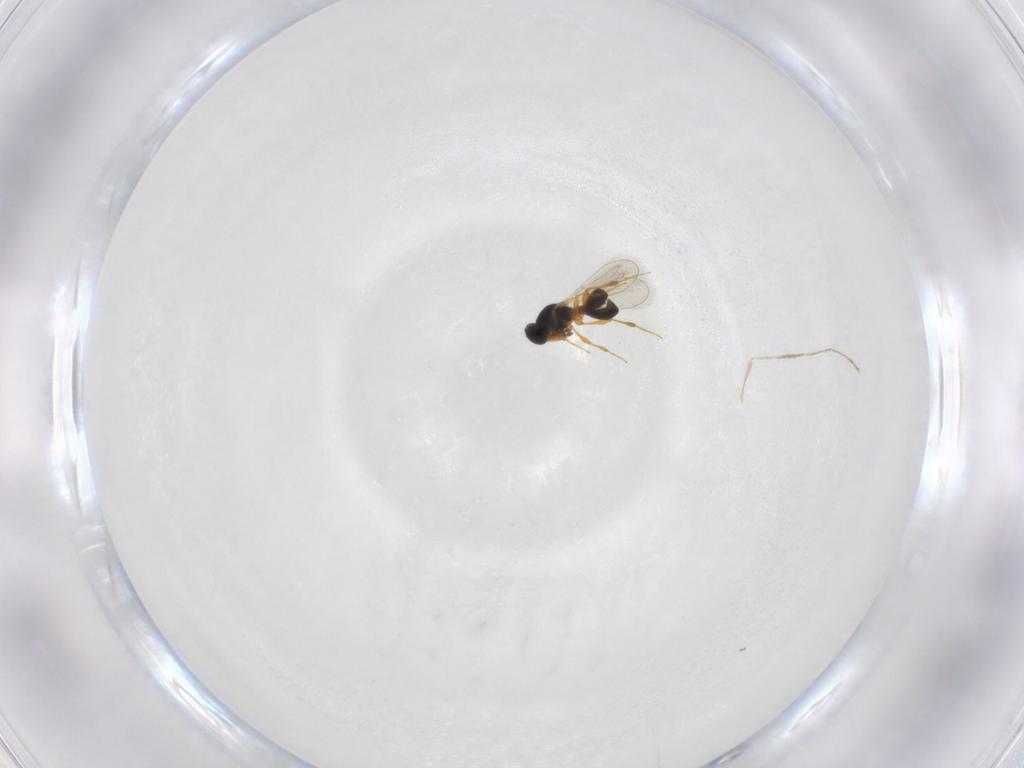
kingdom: Animalia
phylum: Arthropoda
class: Insecta
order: Hymenoptera
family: Platygastridae
